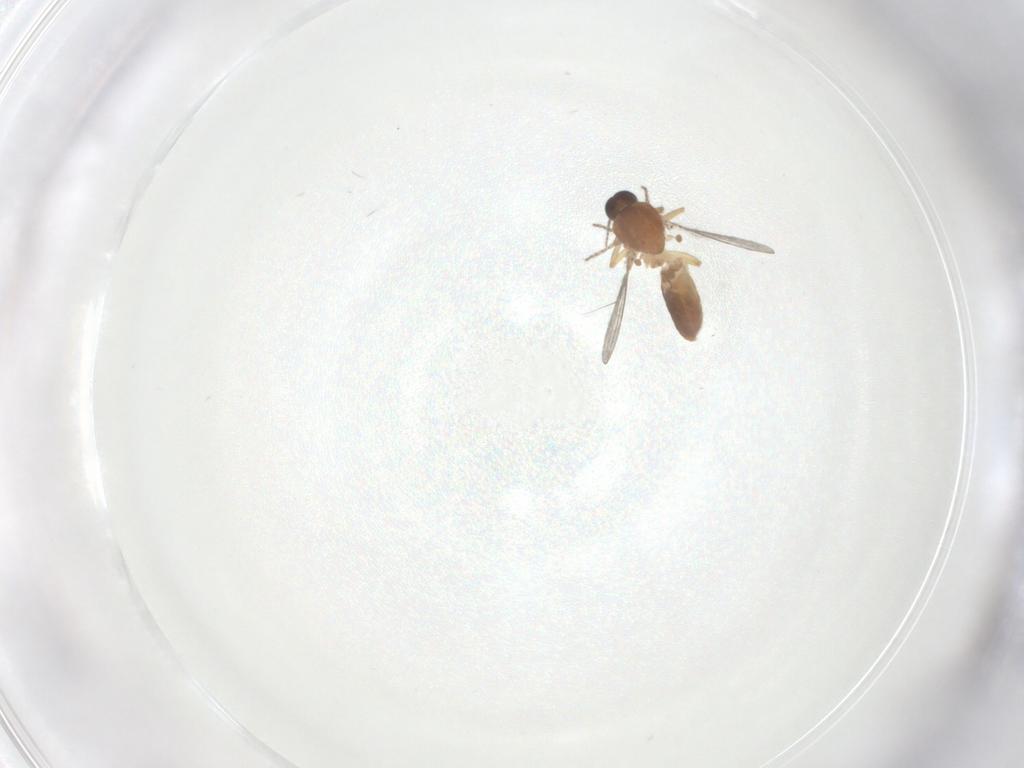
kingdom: Animalia
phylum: Arthropoda
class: Insecta
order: Diptera
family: Ceratopogonidae
